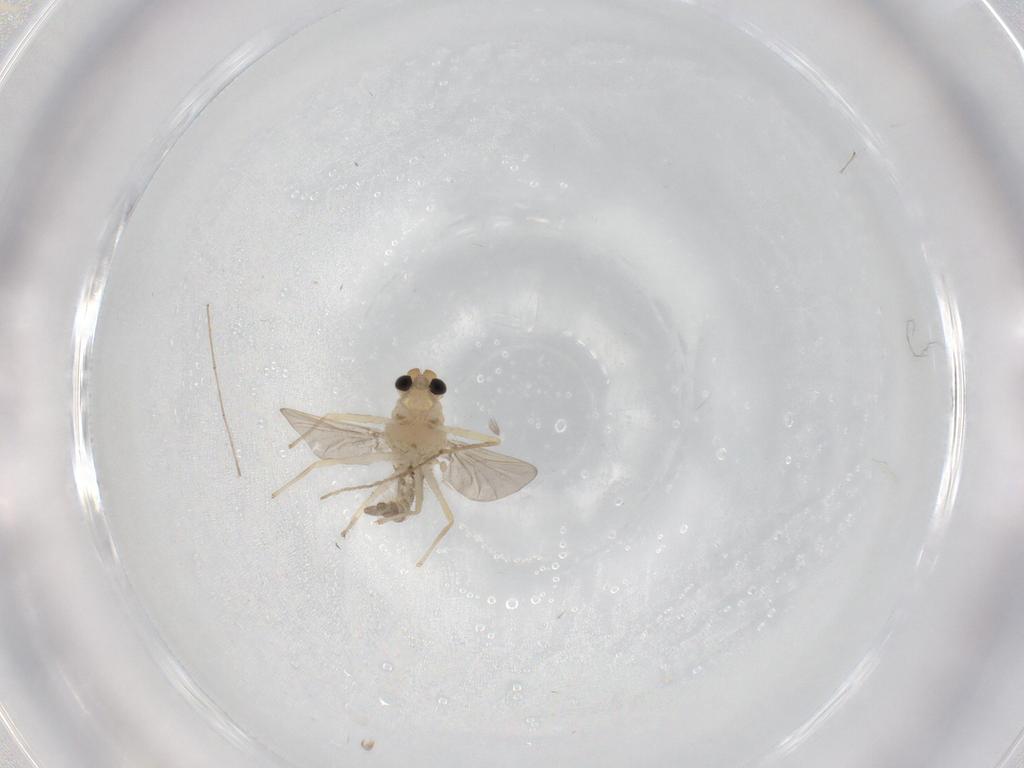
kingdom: Animalia
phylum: Arthropoda
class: Insecta
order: Diptera
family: Chironomidae
